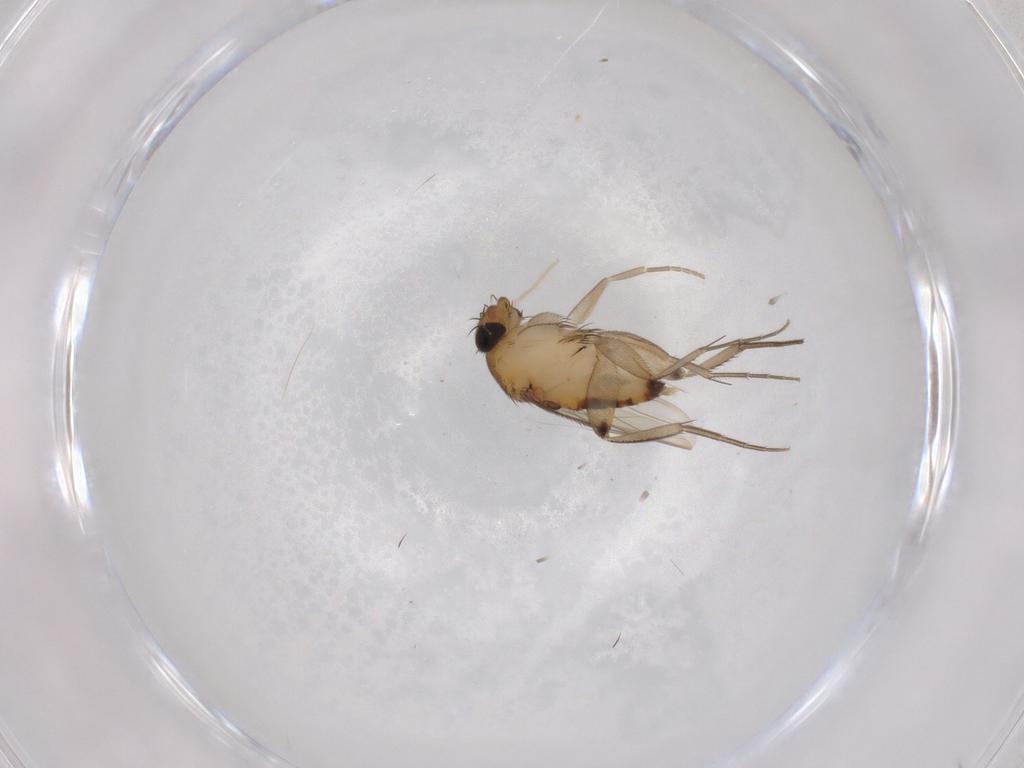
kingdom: Animalia
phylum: Arthropoda
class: Insecta
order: Diptera
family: Phoridae
